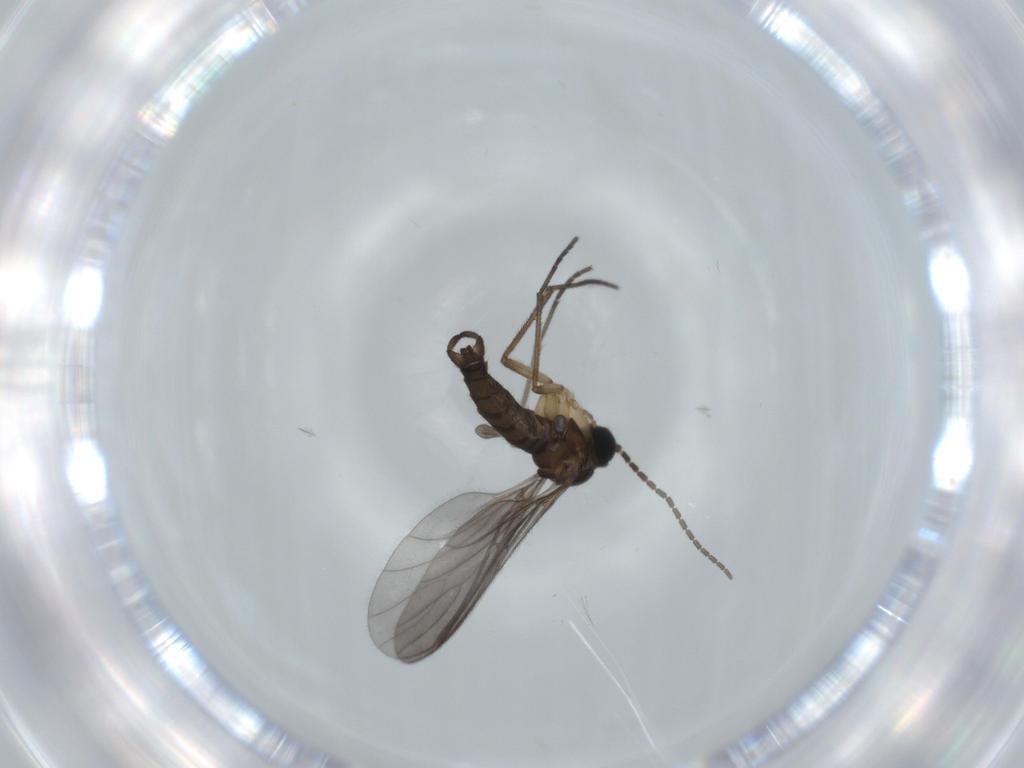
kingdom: Animalia
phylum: Arthropoda
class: Insecta
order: Diptera
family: Sciaridae
